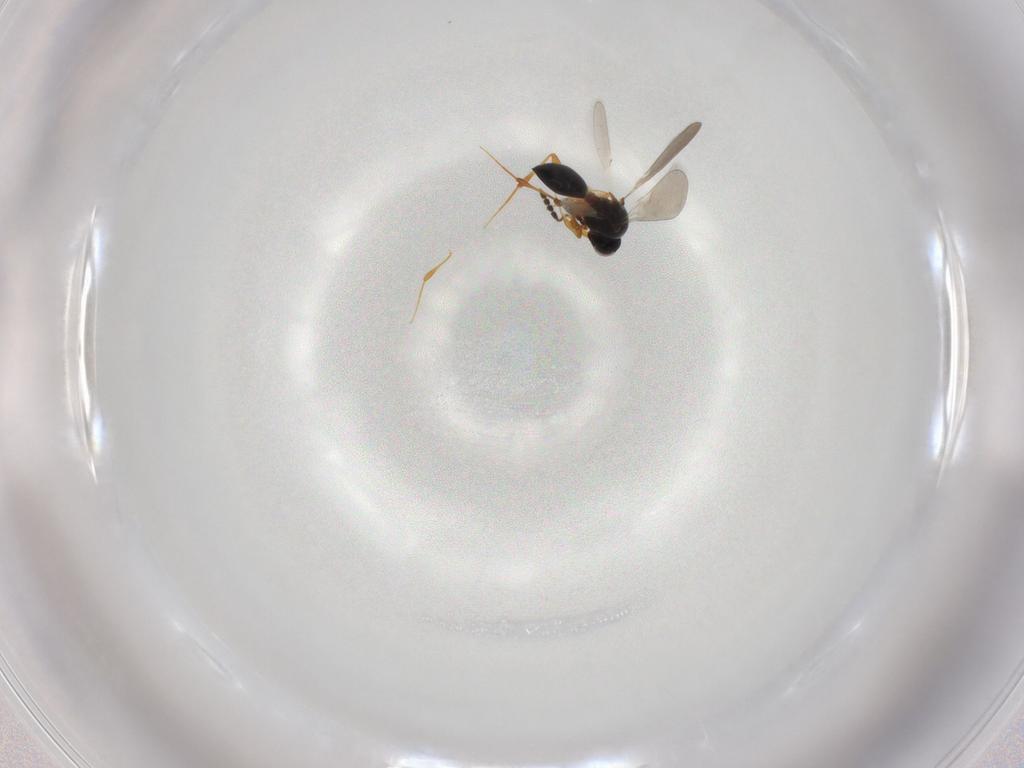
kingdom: Animalia
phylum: Arthropoda
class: Insecta
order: Hymenoptera
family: Platygastridae
